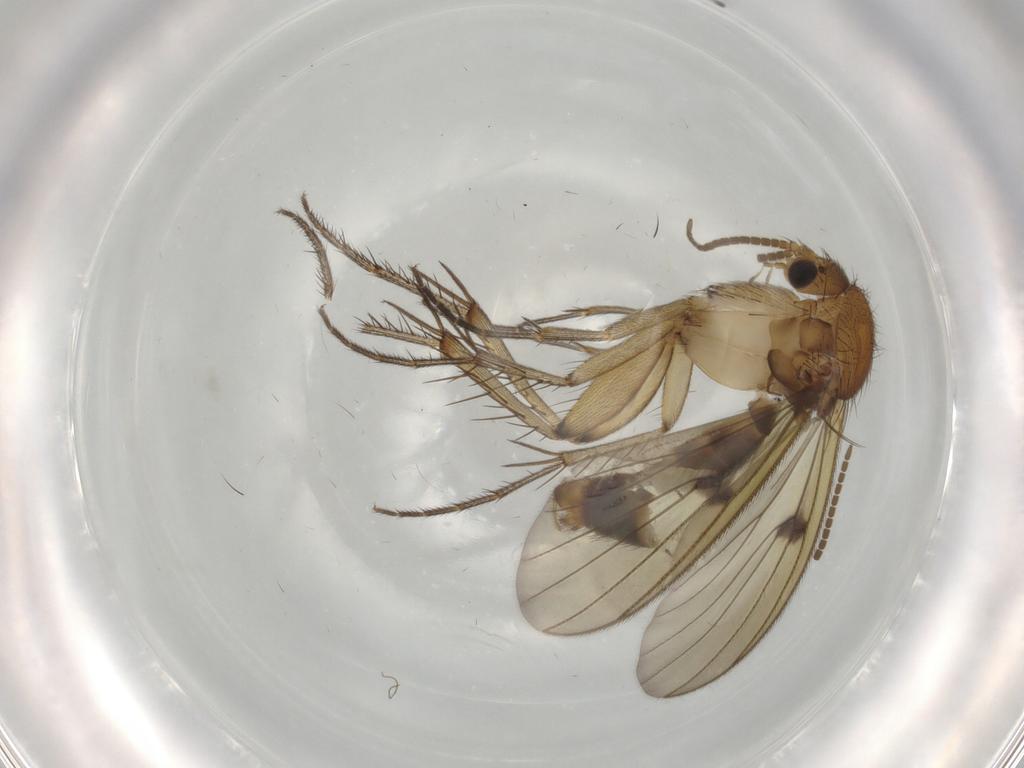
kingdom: Animalia
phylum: Arthropoda
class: Insecta
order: Diptera
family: Mycetophilidae
